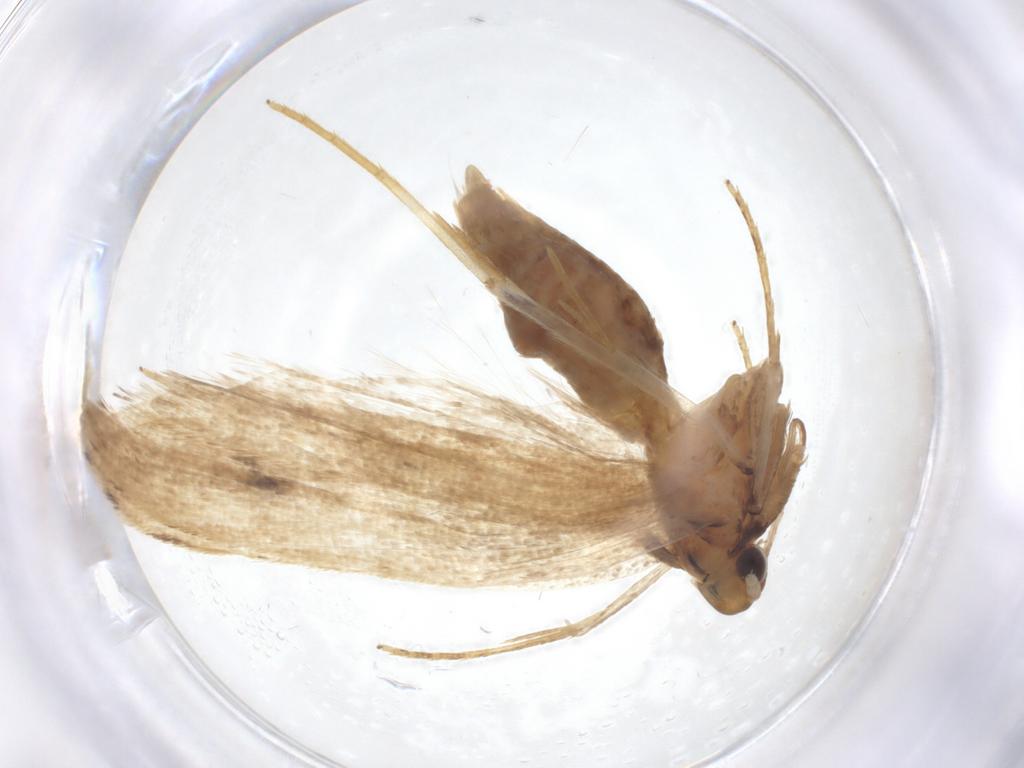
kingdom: Animalia
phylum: Arthropoda
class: Insecta
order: Lepidoptera
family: Lecithoceridae
